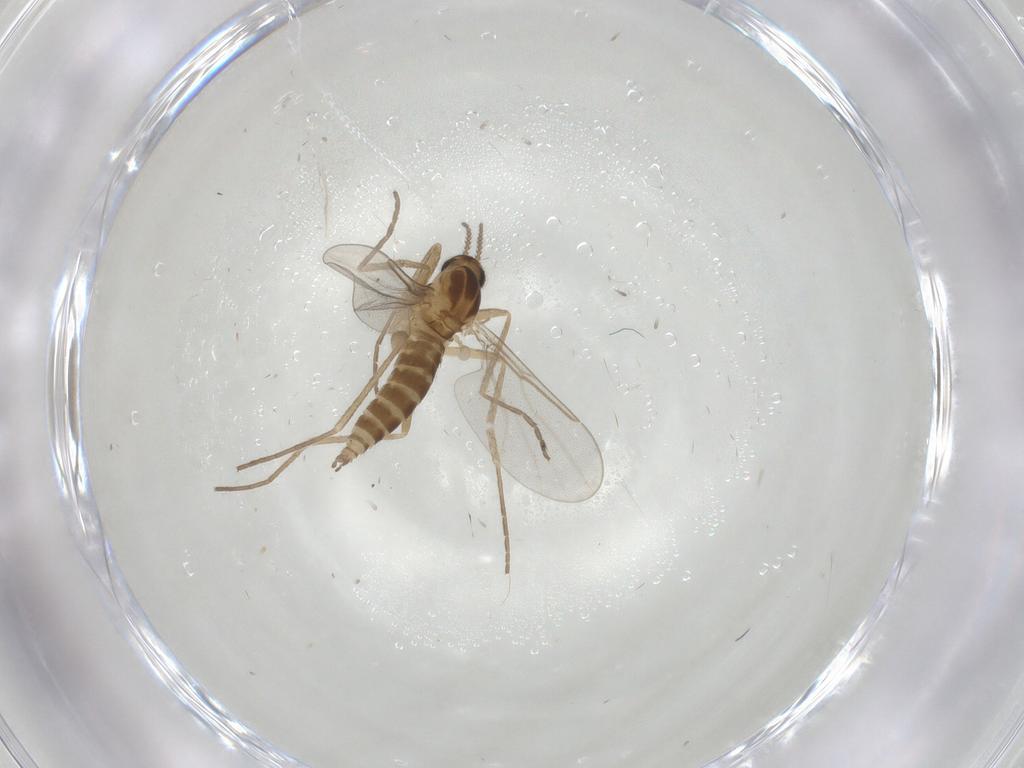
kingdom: Animalia
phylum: Arthropoda
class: Insecta
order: Diptera
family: Cecidomyiidae
